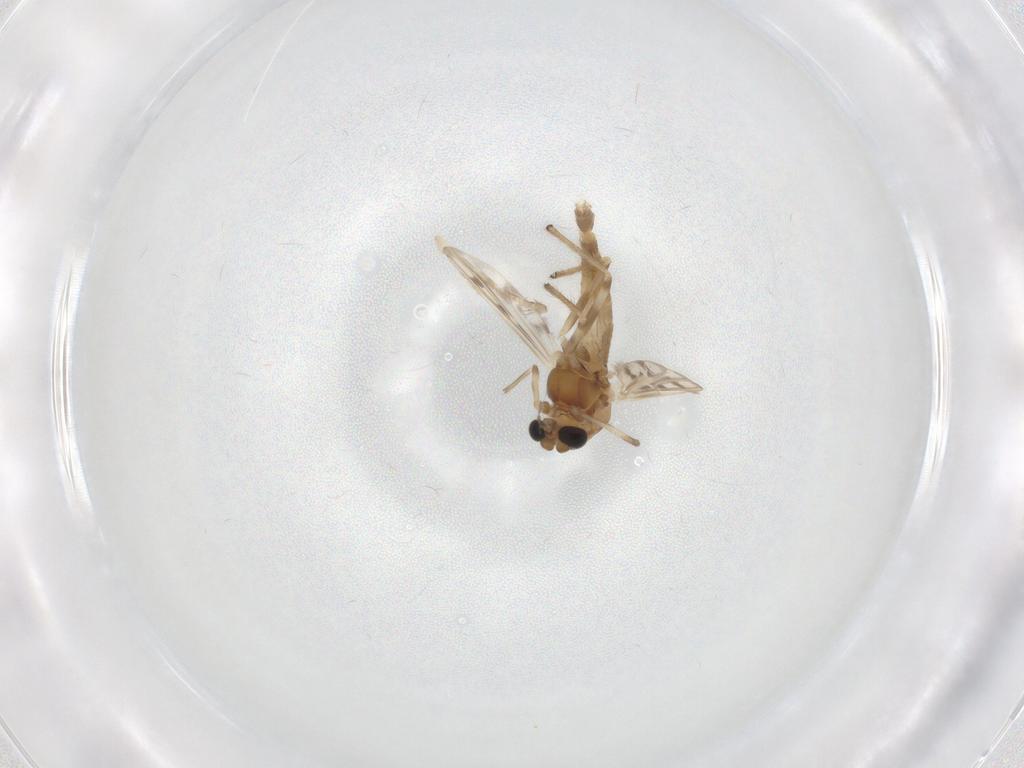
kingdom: Animalia
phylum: Arthropoda
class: Insecta
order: Diptera
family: Chironomidae
